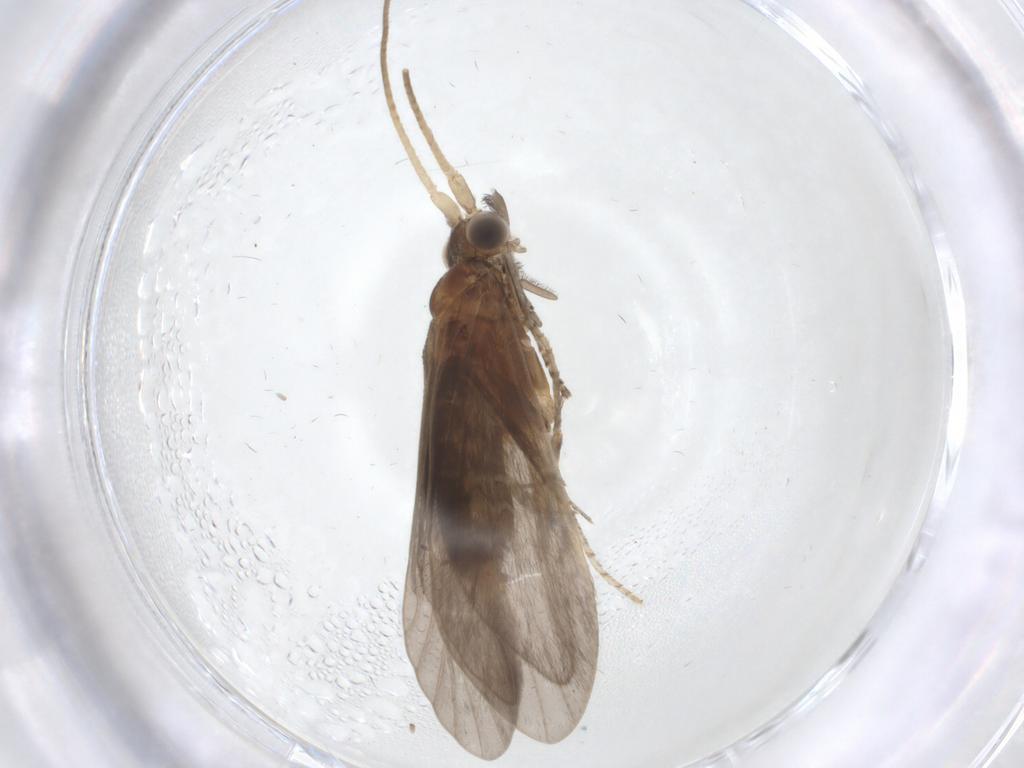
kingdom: Animalia
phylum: Arthropoda
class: Insecta
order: Trichoptera
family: Helicopsychidae
